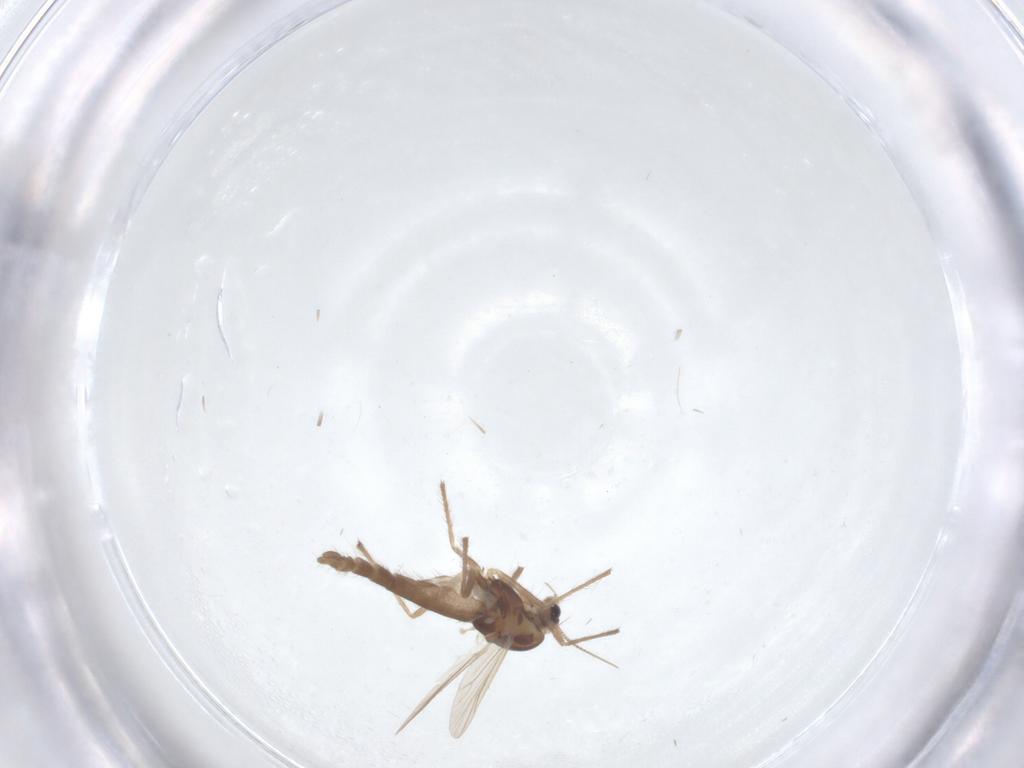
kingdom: Animalia
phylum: Arthropoda
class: Insecta
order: Diptera
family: Chironomidae
